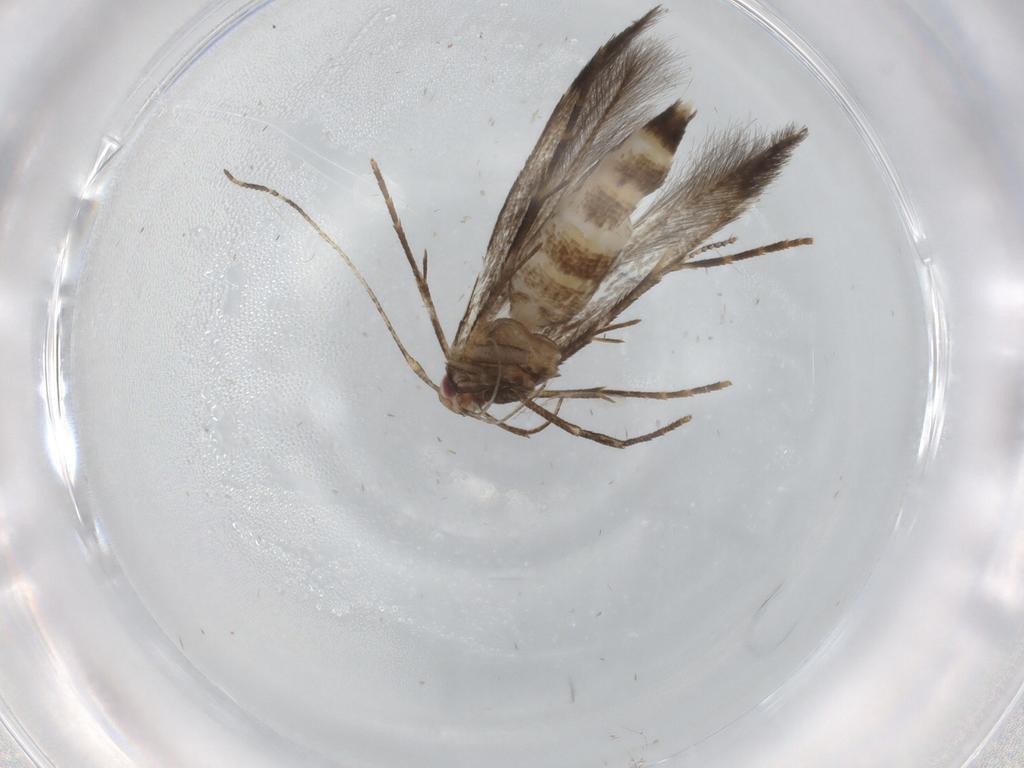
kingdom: Animalia
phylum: Arthropoda
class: Insecta
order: Lepidoptera
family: Cosmopterigidae
